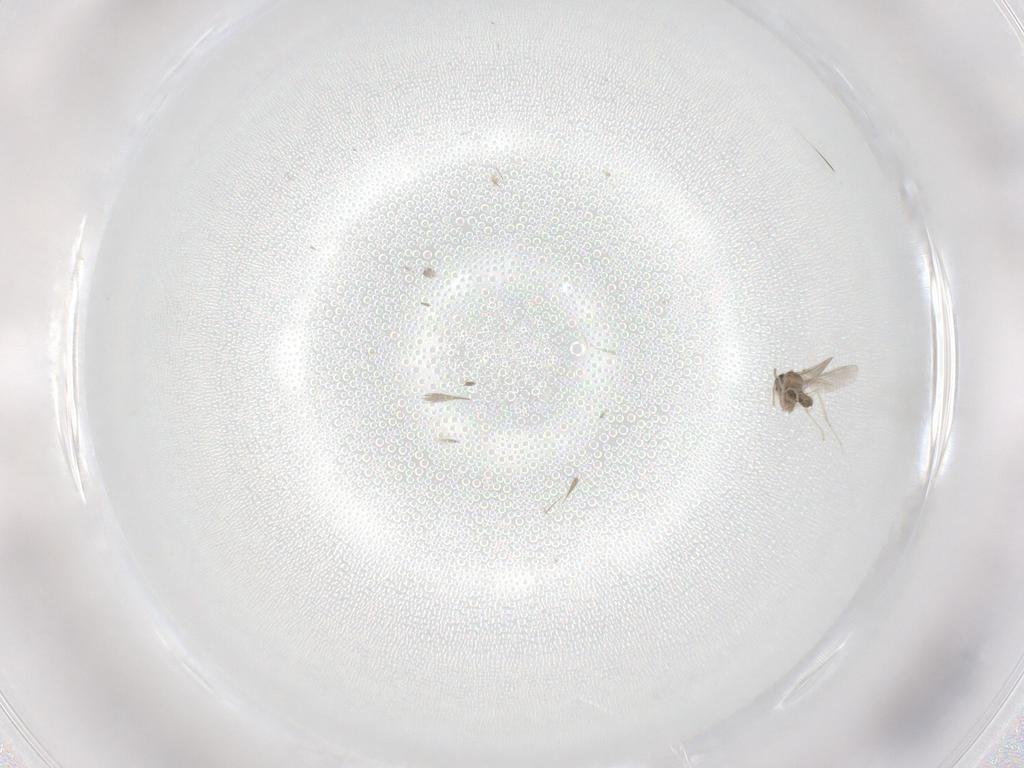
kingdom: Animalia
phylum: Arthropoda
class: Insecta
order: Diptera
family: Cecidomyiidae
